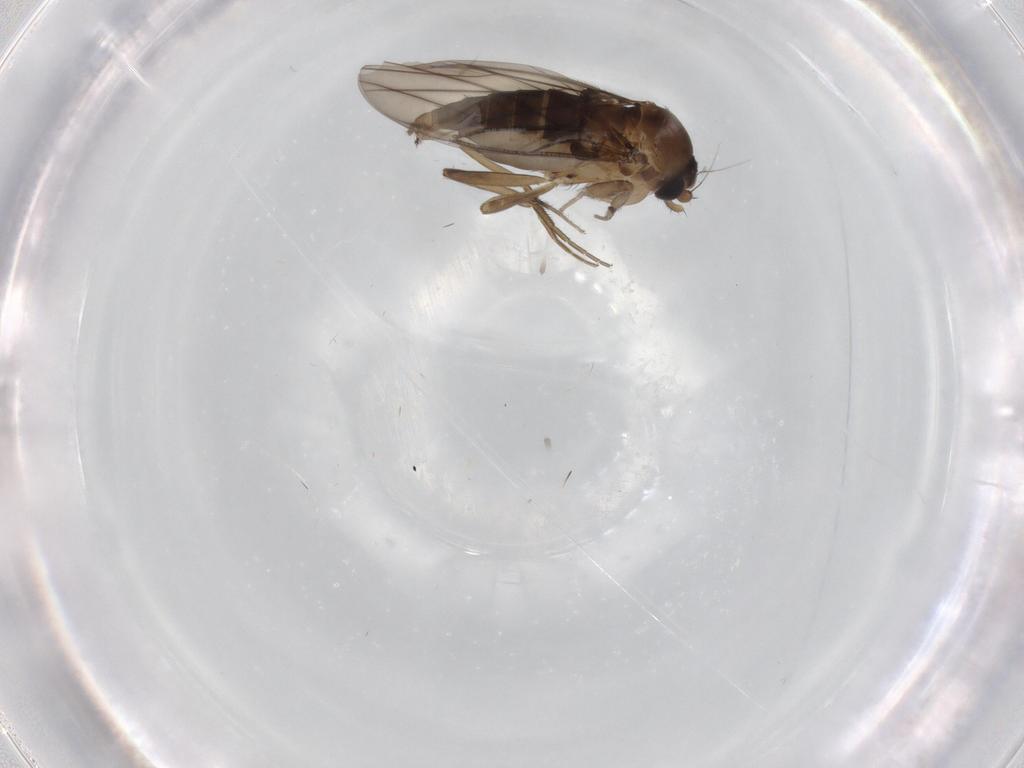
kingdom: Animalia
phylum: Arthropoda
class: Insecta
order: Diptera
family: Phoridae
